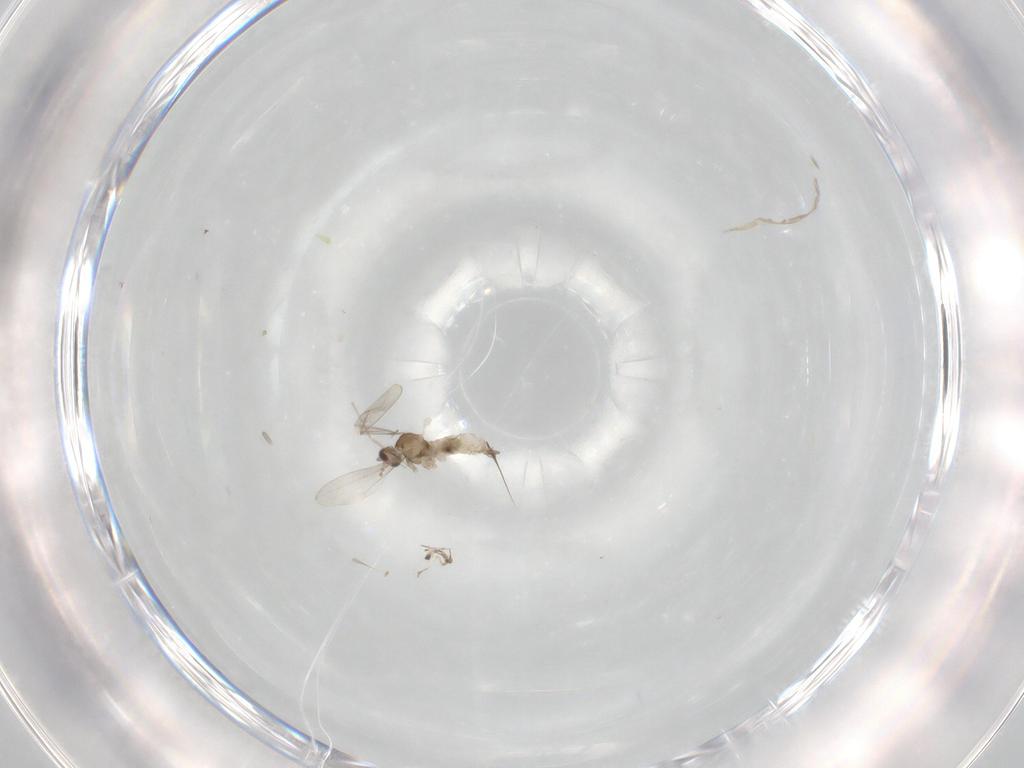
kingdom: Animalia
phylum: Arthropoda
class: Insecta
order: Diptera
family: Cecidomyiidae
